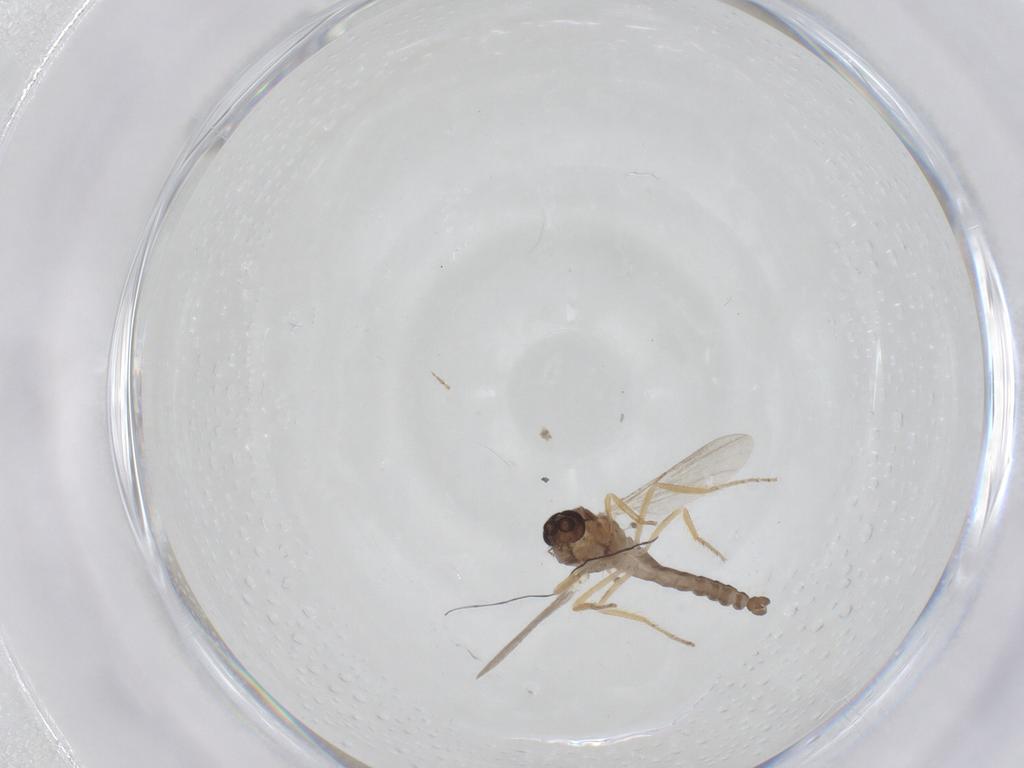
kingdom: Animalia
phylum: Arthropoda
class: Insecta
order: Diptera
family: Ceratopogonidae
